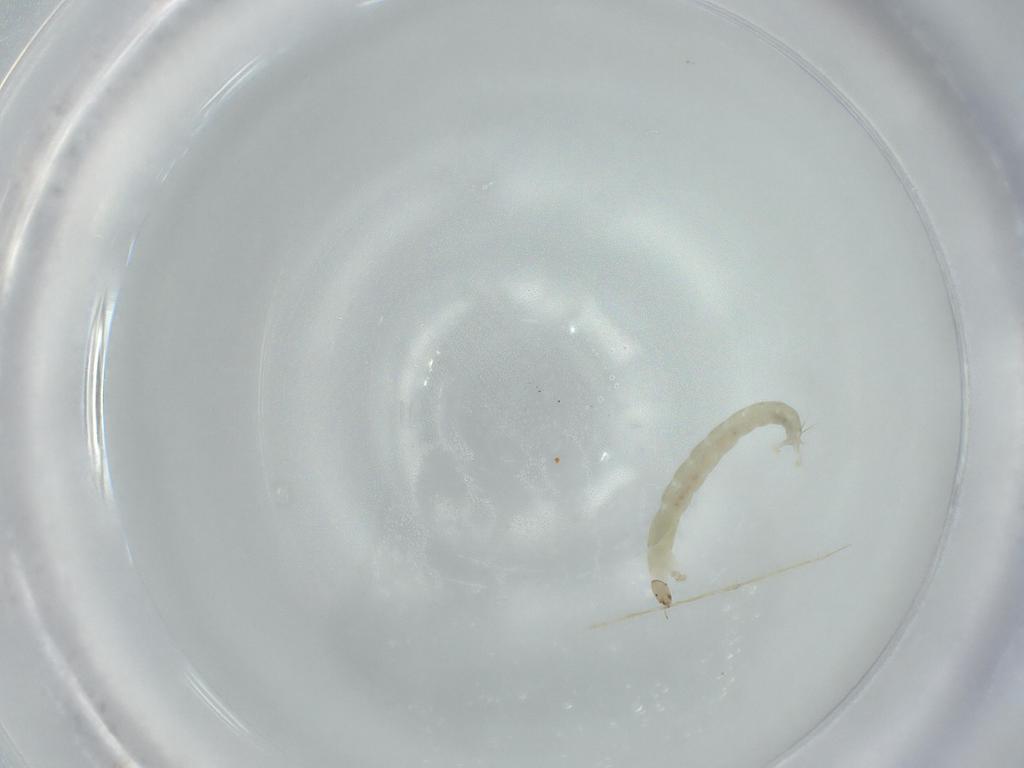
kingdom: Animalia
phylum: Arthropoda
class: Insecta
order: Diptera
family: Chironomidae
